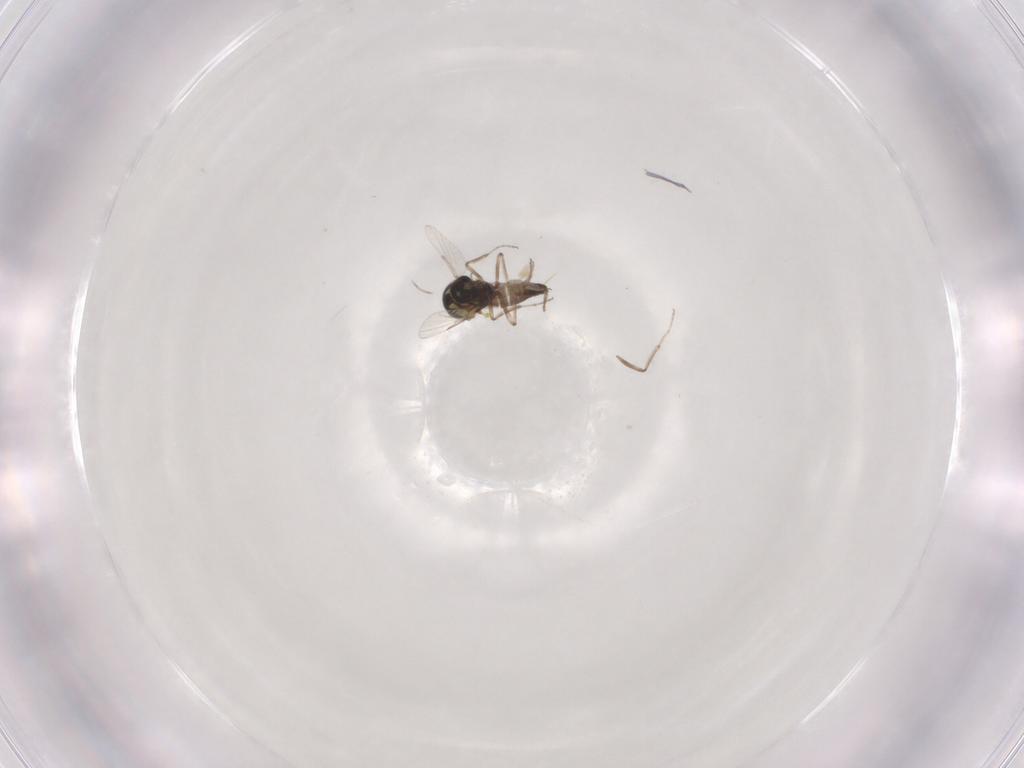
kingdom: Animalia
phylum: Arthropoda
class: Insecta
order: Diptera
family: Ceratopogonidae
